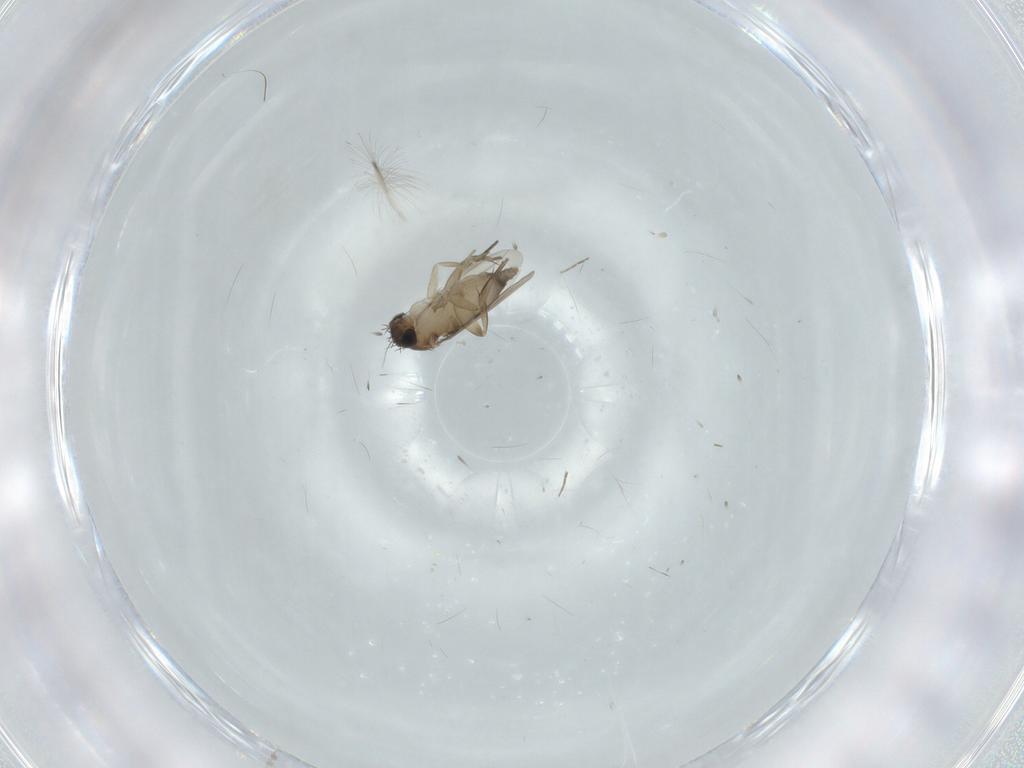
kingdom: Animalia
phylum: Arthropoda
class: Insecta
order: Diptera
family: Phoridae
